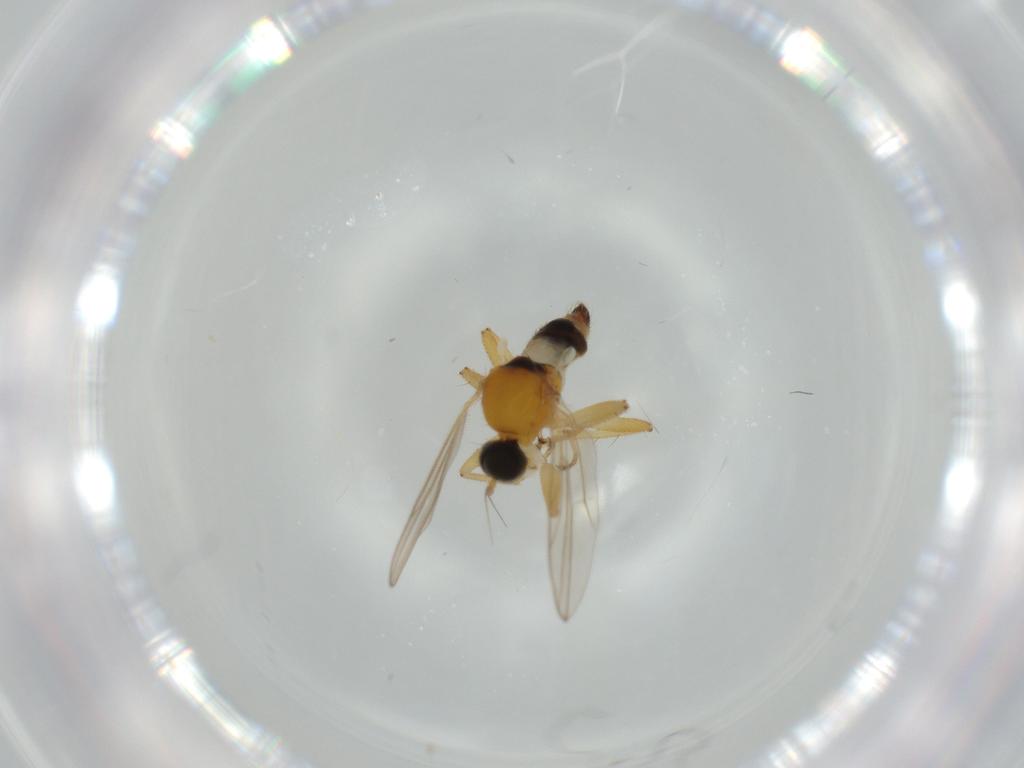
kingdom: Animalia
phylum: Arthropoda
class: Insecta
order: Diptera
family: Hybotidae
